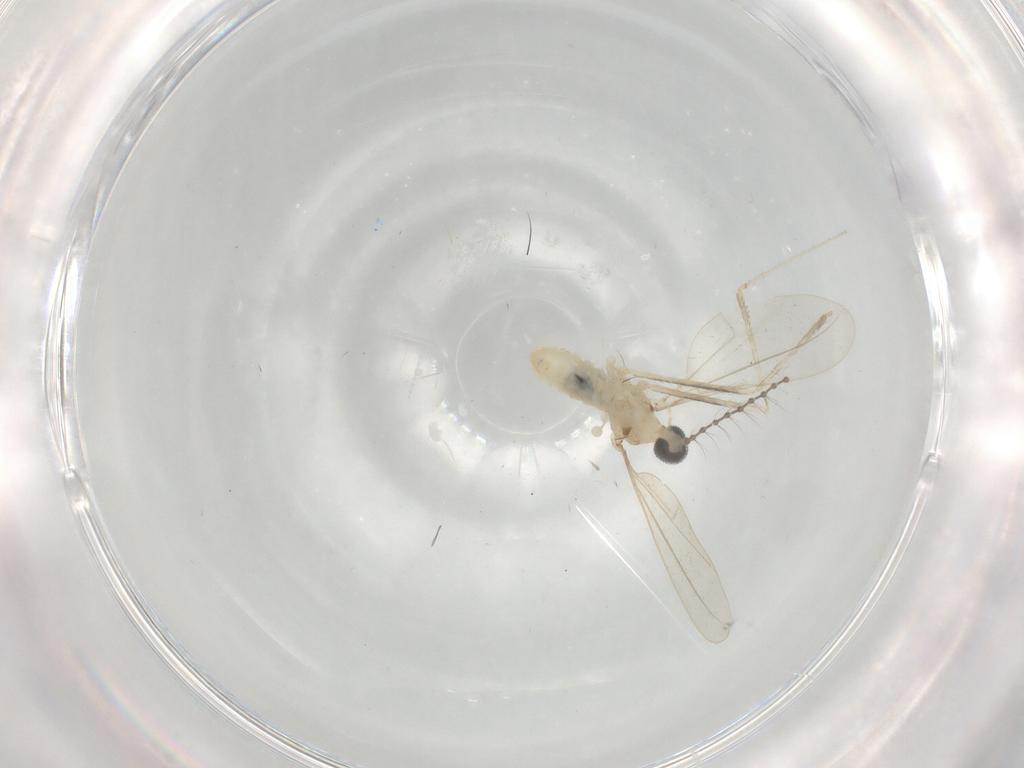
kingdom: Animalia
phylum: Arthropoda
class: Insecta
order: Diptera
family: Cecidomyiidae
